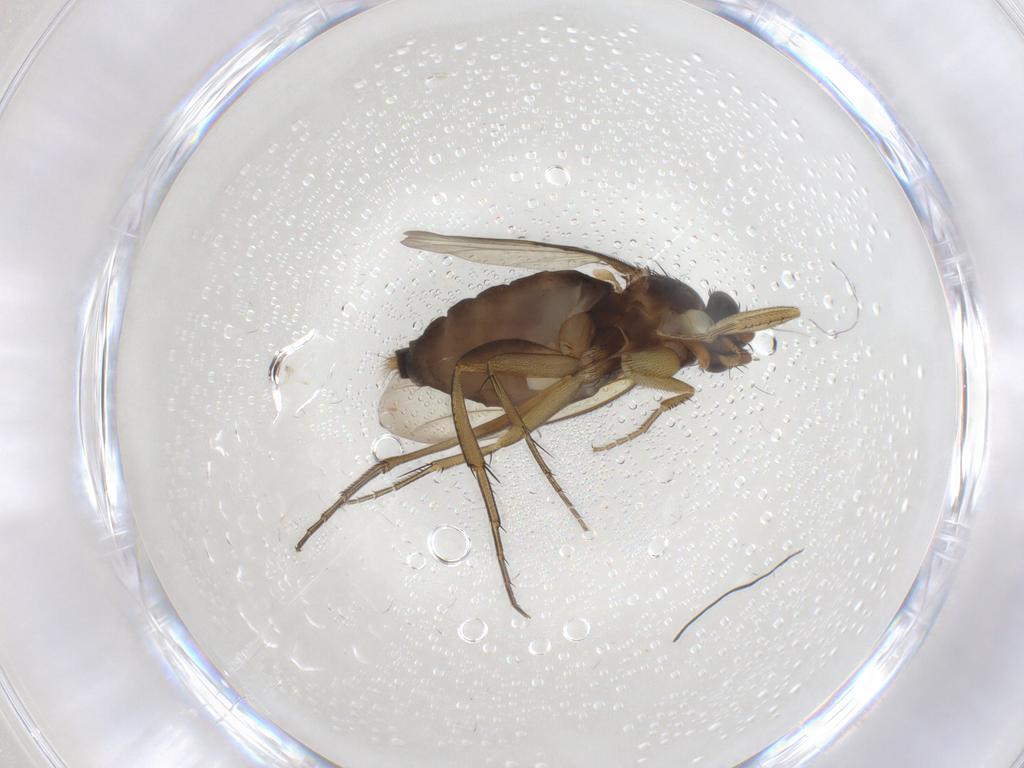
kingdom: Animalia
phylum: Arthropoda
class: Insecta
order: Diptera
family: Phoridae
